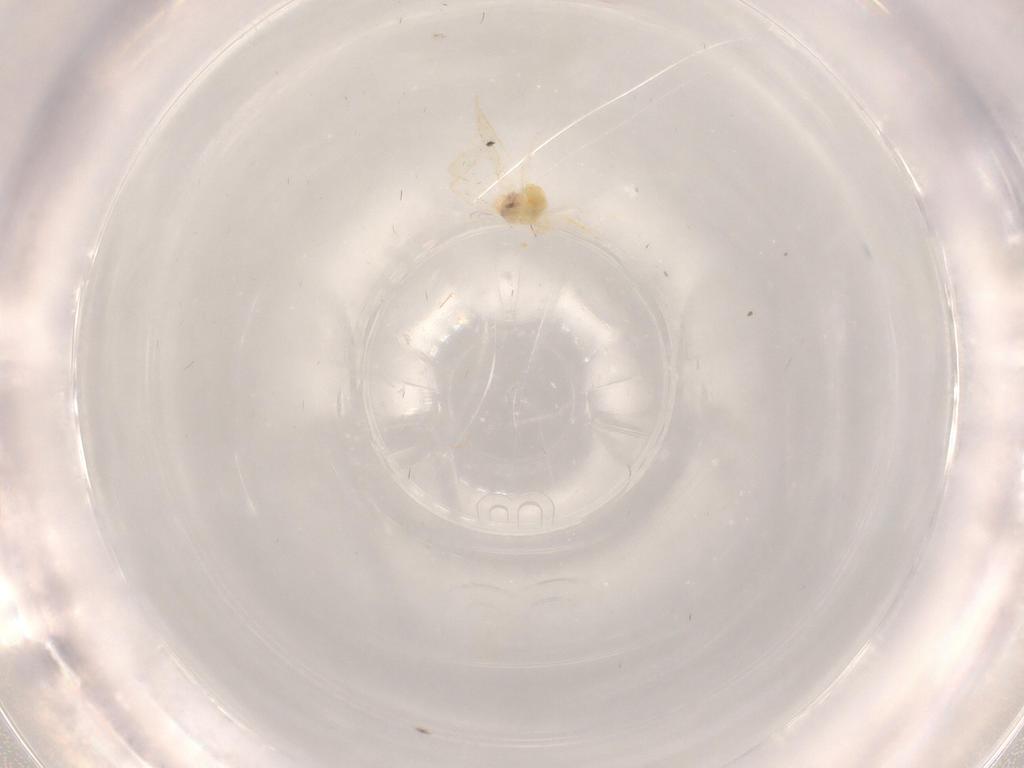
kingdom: Animalia
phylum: Arthropoda
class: Insecta
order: Hemiptera
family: Aleyrodidae
